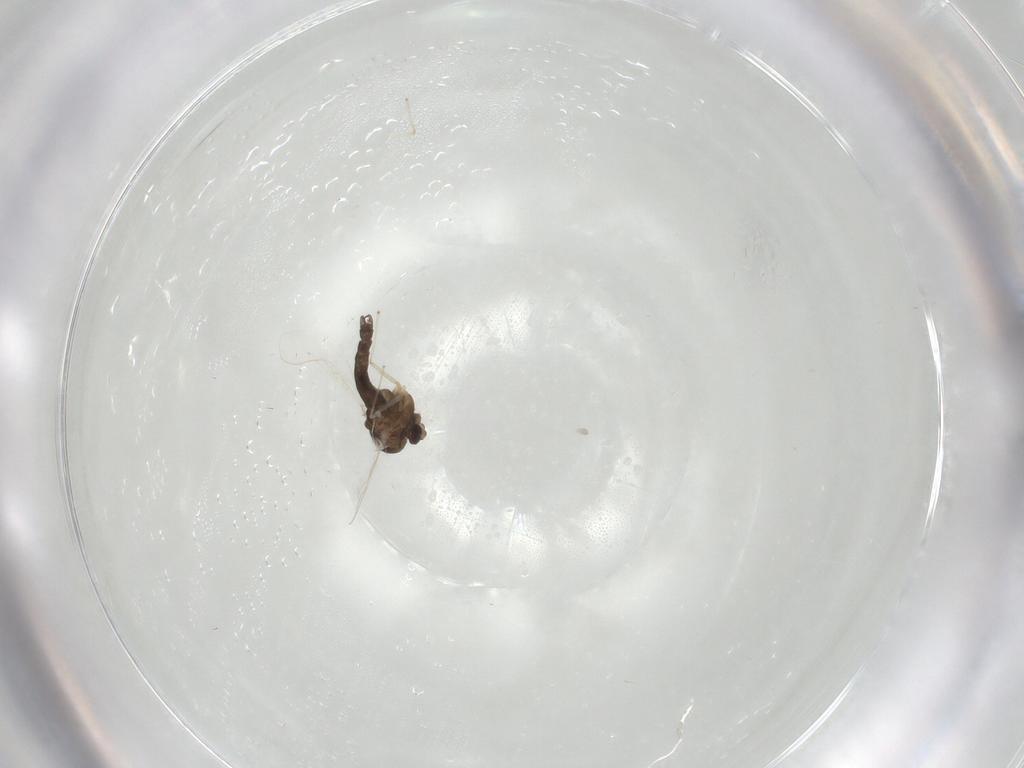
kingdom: Animalia
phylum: Arthropoda
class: Insecta
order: Diptera
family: Chironomidae
